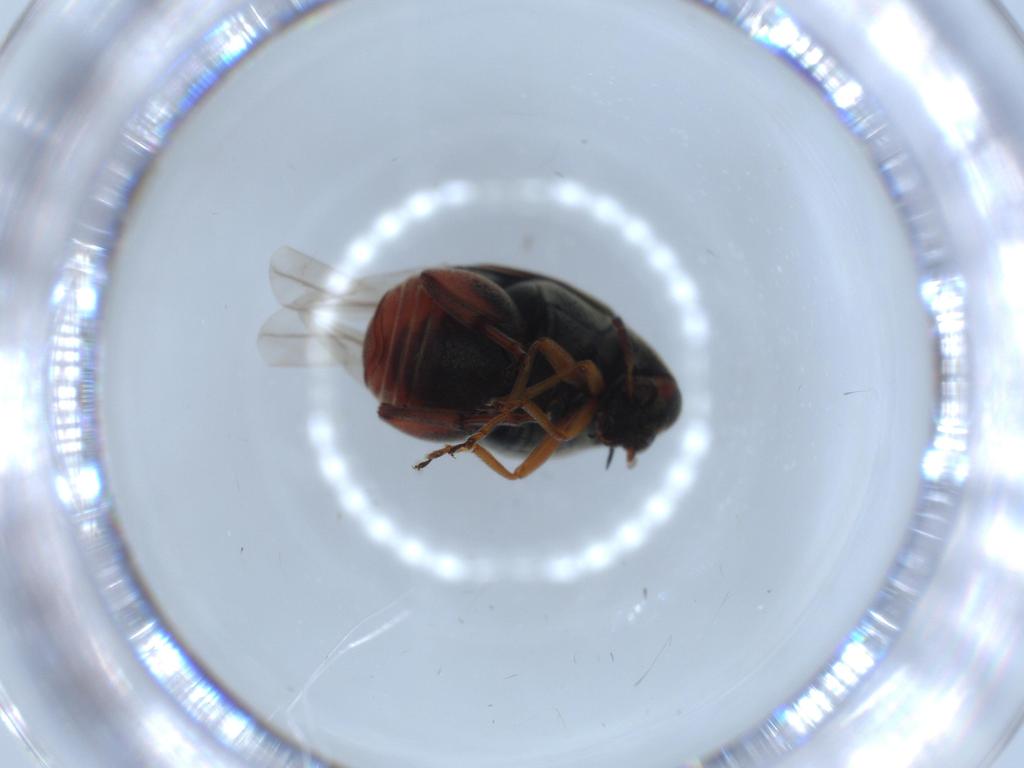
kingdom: Animalia
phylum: Arthropoda
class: Insecta
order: Coleoptera
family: Chrysomelidae
